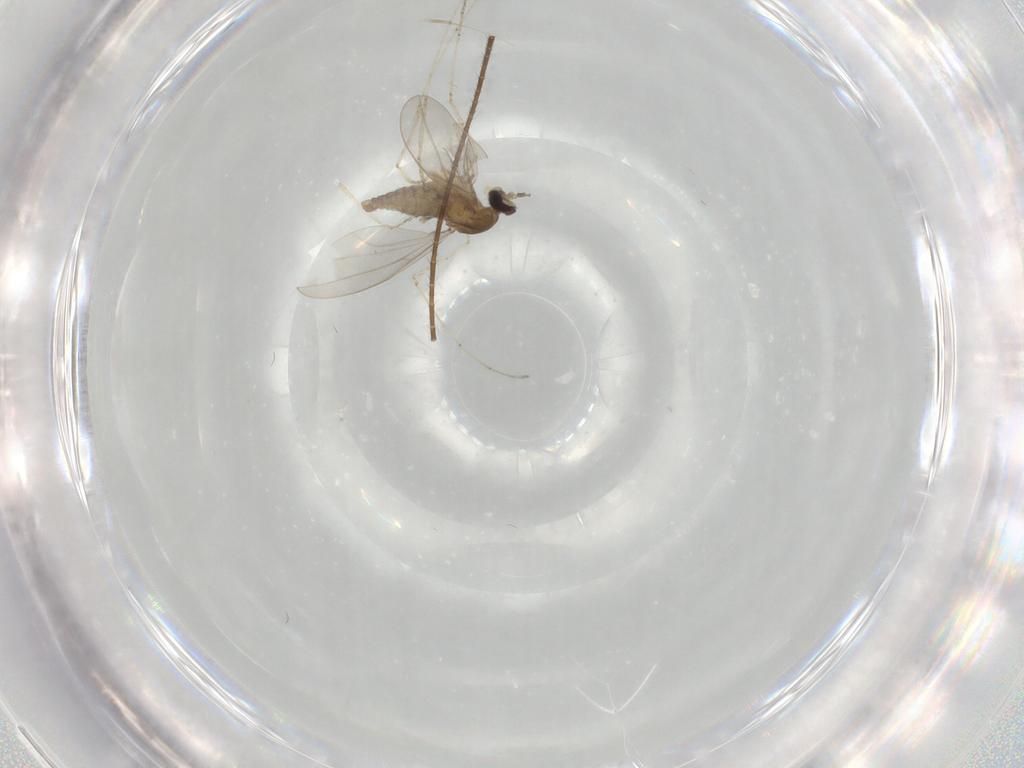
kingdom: Animalia
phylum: Arthropoda
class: Insecta
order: Diptera
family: Cecidomyiidae
